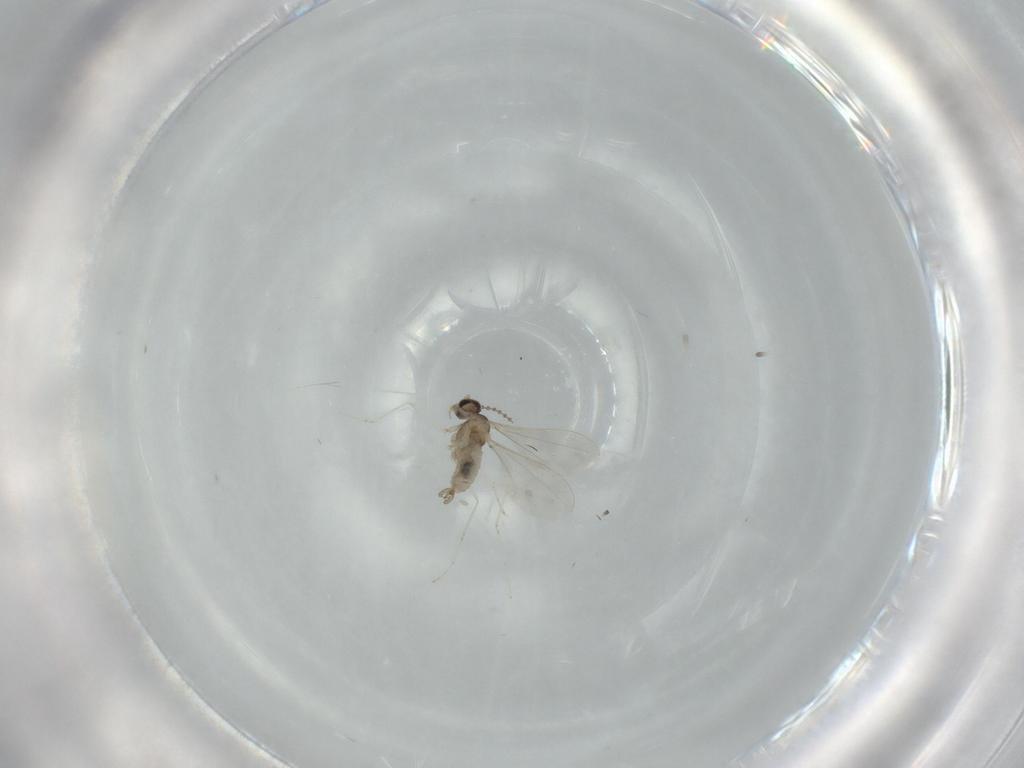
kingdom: Animalia
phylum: Arthropoda
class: Insecta
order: Diptera
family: Cecidomyiidae
